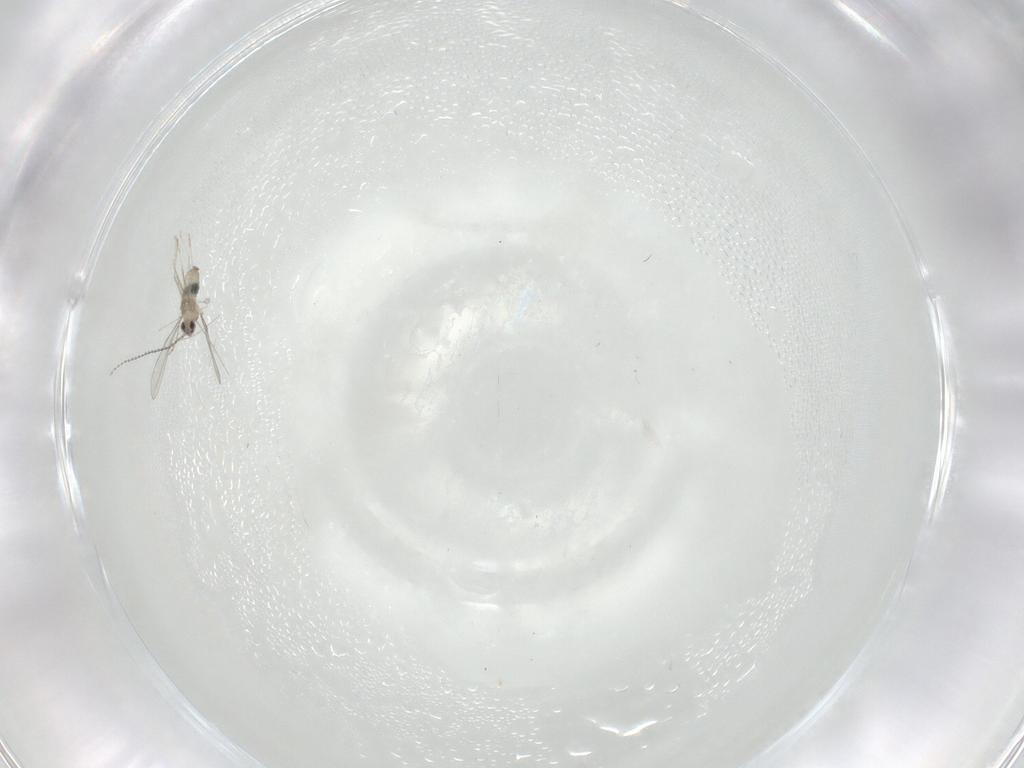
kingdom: Animalia
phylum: Arthropoda
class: Insecta
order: Diptera
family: Cecidomyiidae
